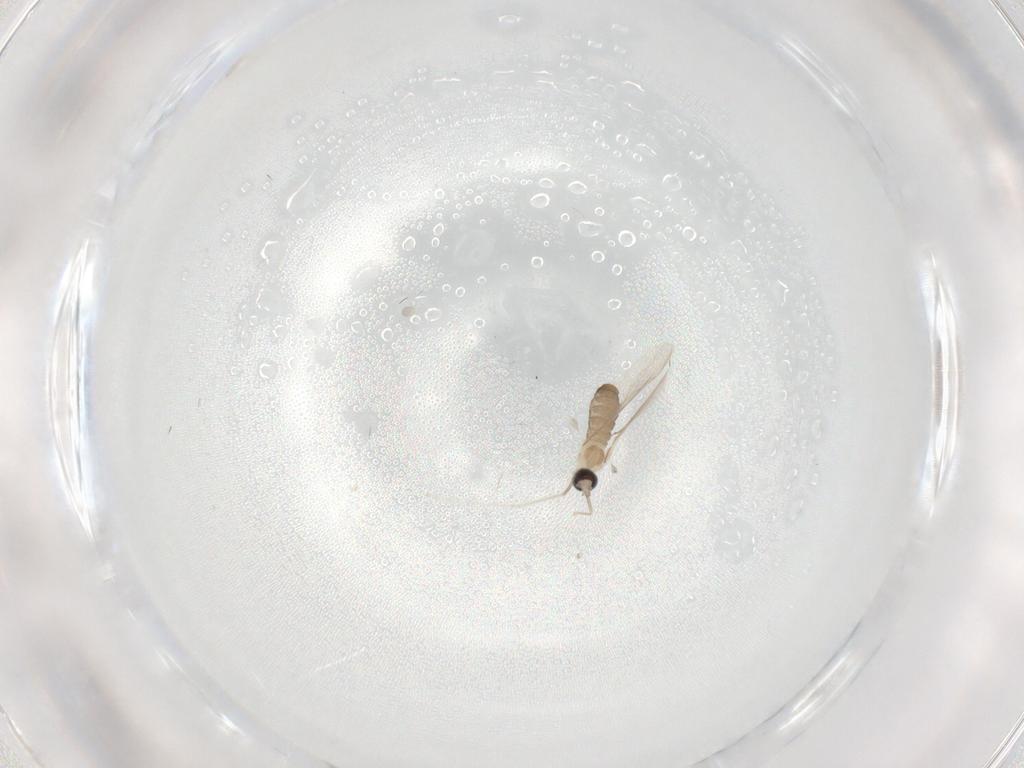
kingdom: Animalia
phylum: Arthropoda
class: Insecta
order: Diptera
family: Cecidomyiidae
